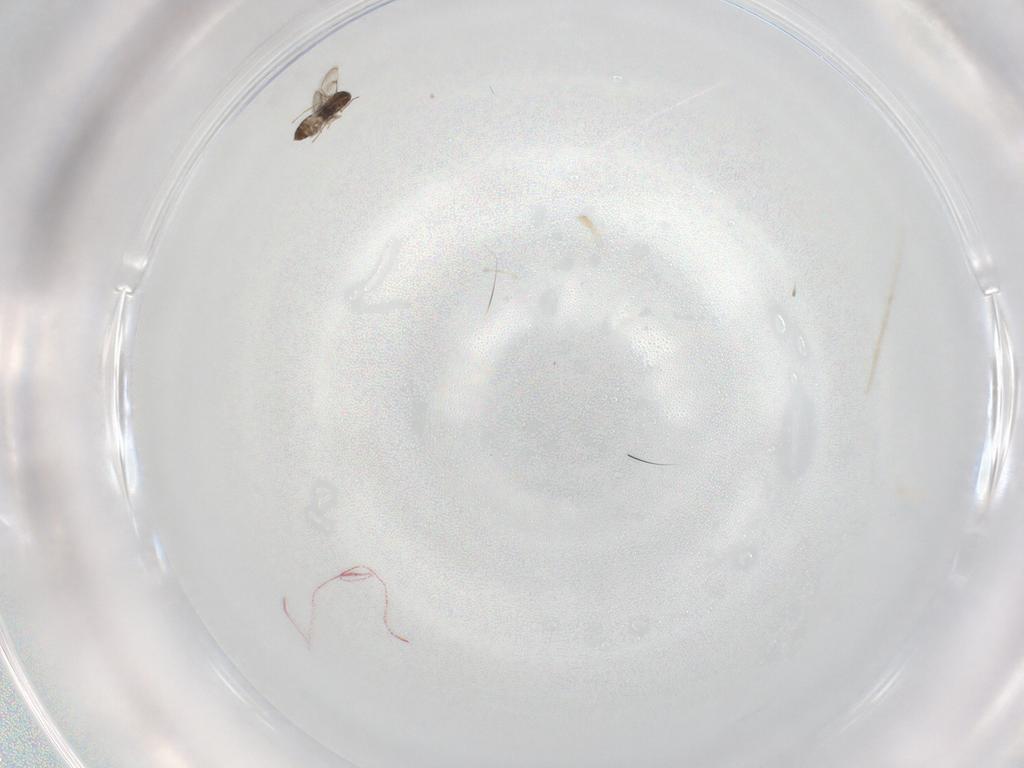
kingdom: Animalia
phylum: Arthropoda
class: Insecta
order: Hymenoptera
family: Eulophidae
